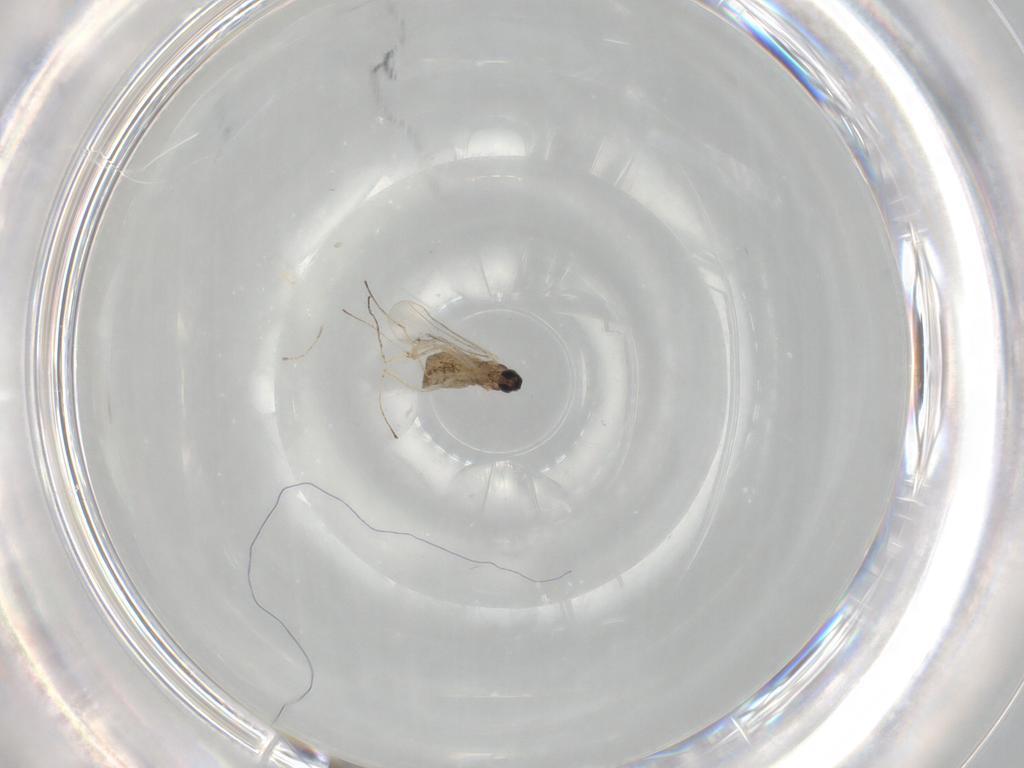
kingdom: Animalia
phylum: Arthropoda
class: Insecta
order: Diptera
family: Cecidomyiidae
